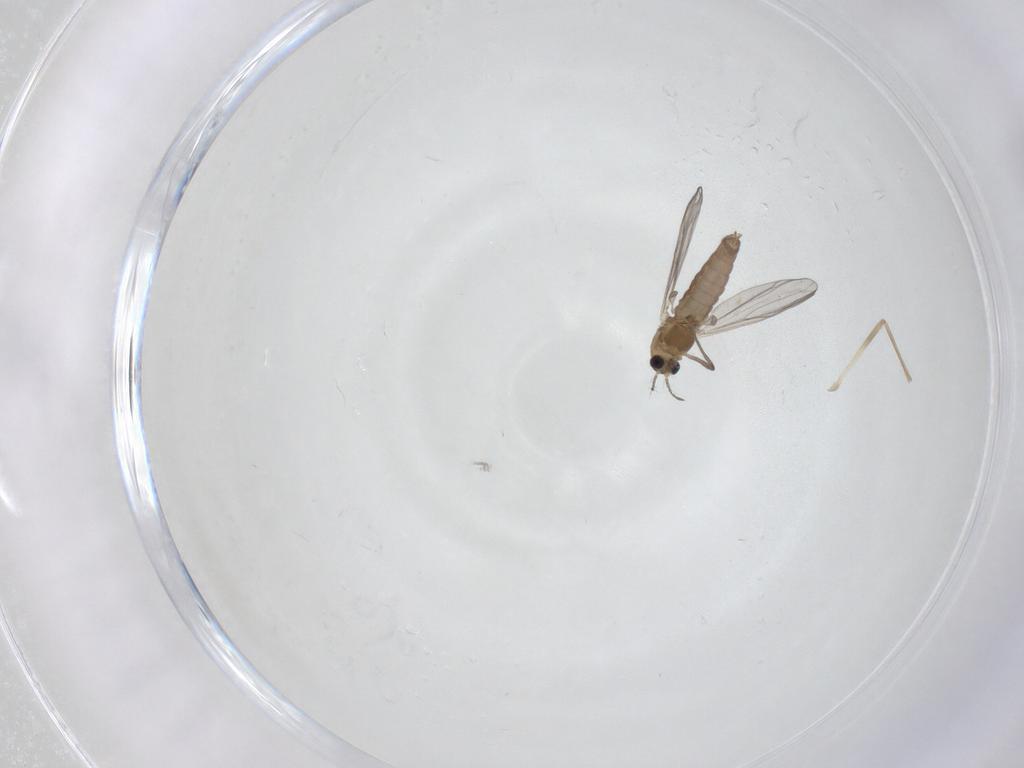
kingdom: Animalia
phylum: Arthropoda
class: Insecta
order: Diptera
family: Chironomidae
